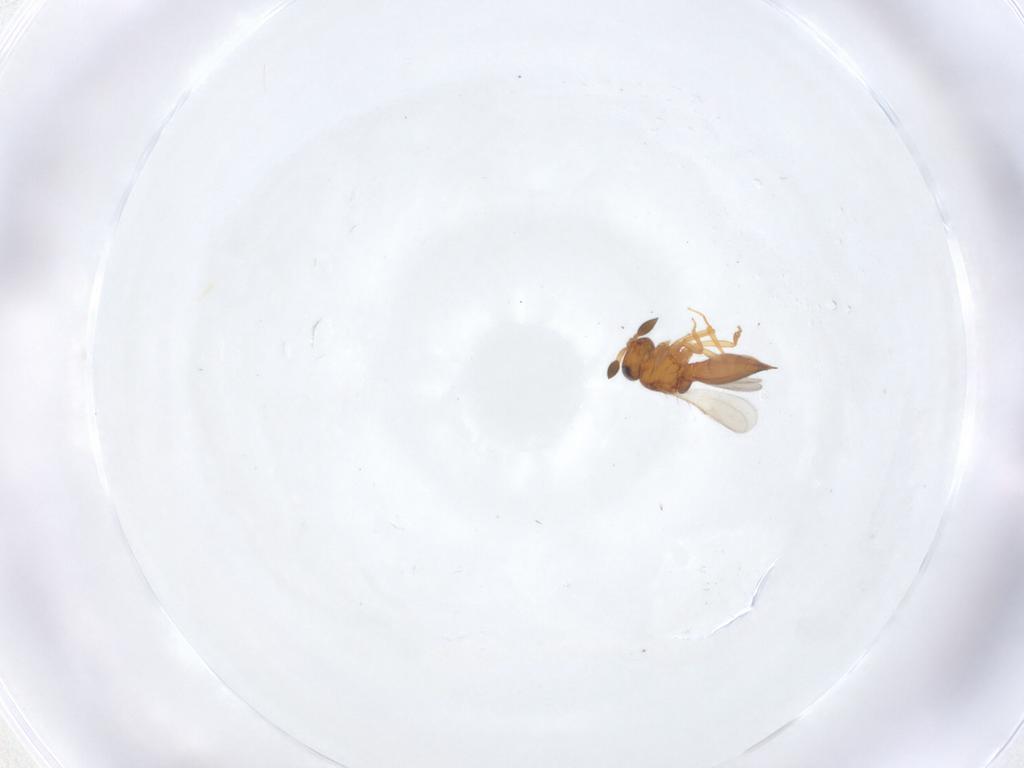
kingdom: Animalia
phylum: Arthropoda
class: Insecta
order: Hymenoptera
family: Scelionidae
